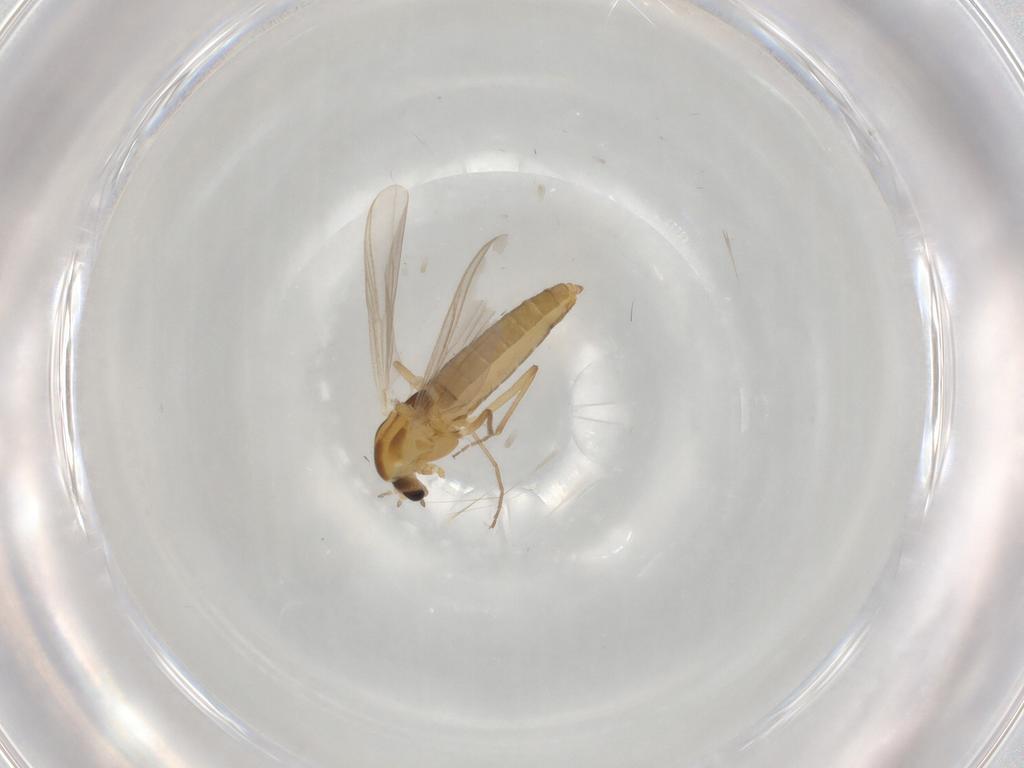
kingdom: Animalia
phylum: Arthropoda
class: Insecta
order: Diptera
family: Chironomidae
